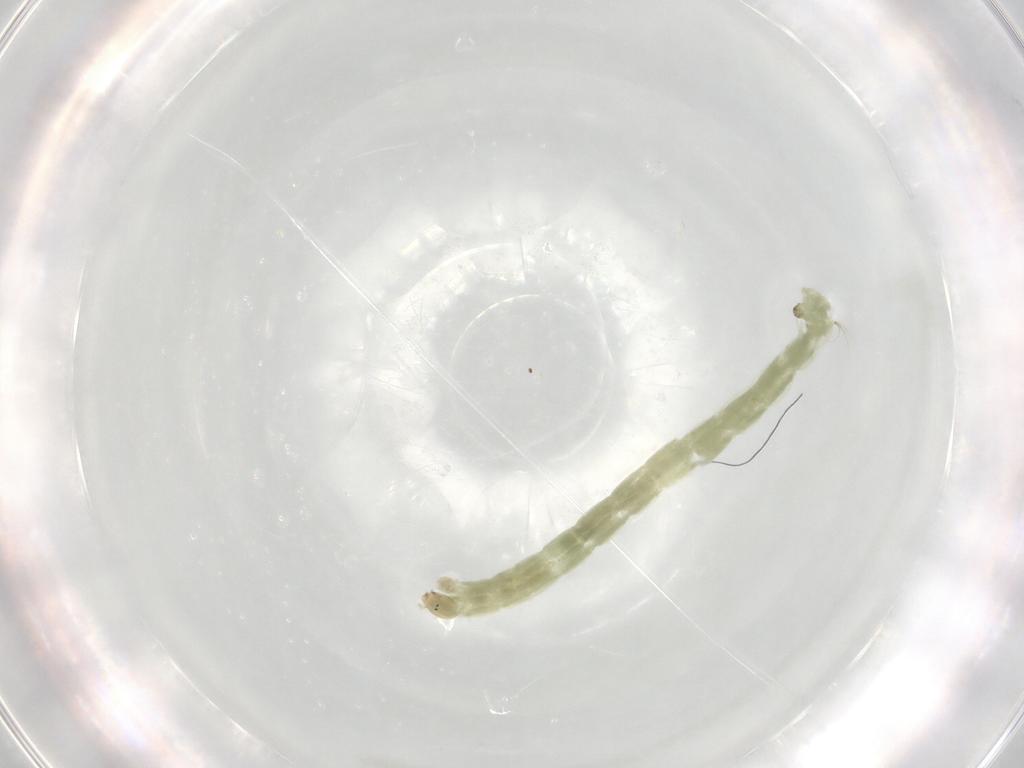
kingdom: Animalia
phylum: Arthropoda
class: Insecta
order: Diptera
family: Chironomidae
